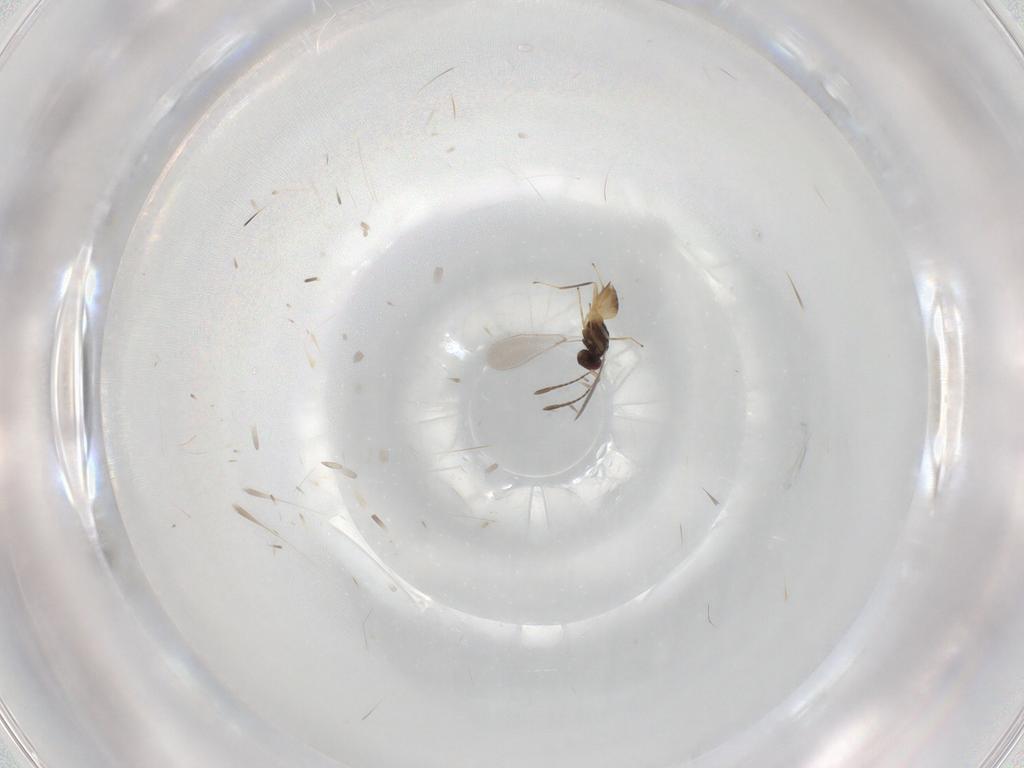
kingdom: Animalia
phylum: Arthropoda
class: Insecta
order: Hymenoptera
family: Mymaridae
